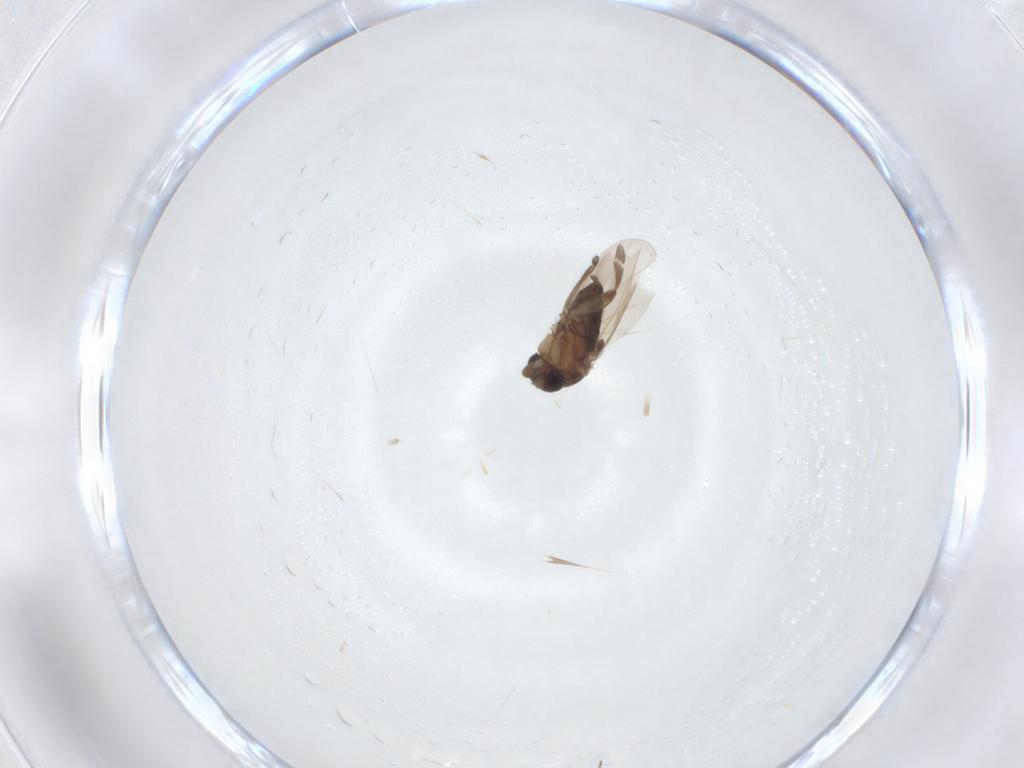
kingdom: Animalia
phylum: Arthropoda
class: Insecta
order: Diptera
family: Phoridae
